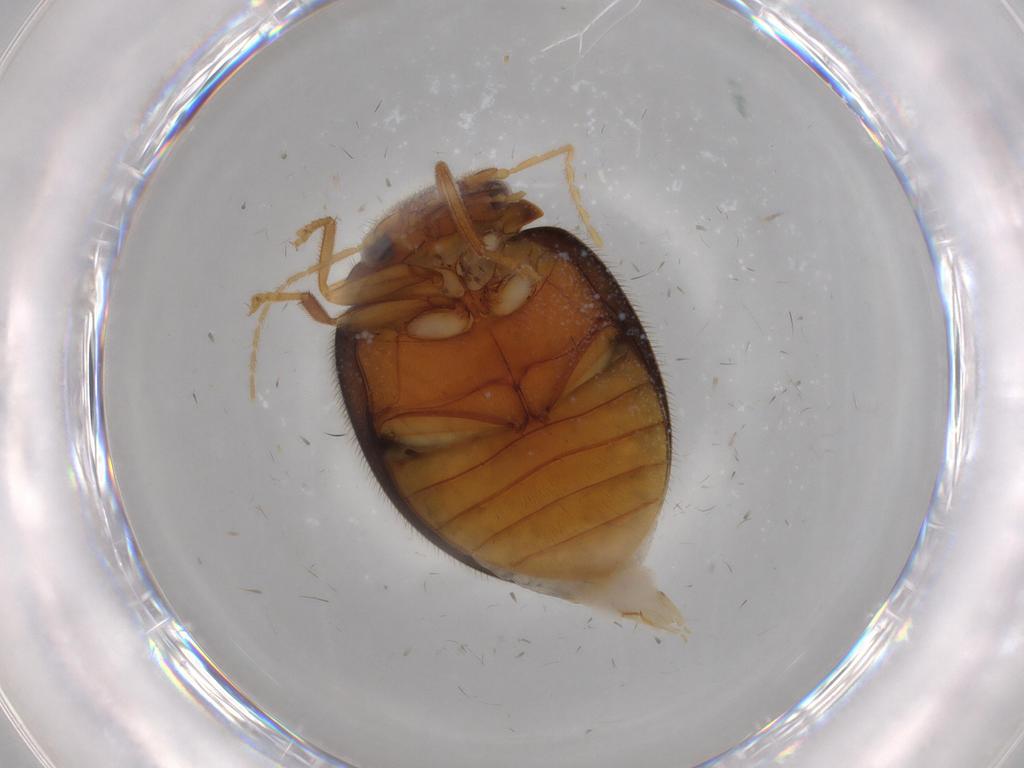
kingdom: Animalia
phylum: Arthropoda
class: Insecta
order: Coleoptera
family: Scirtidae
